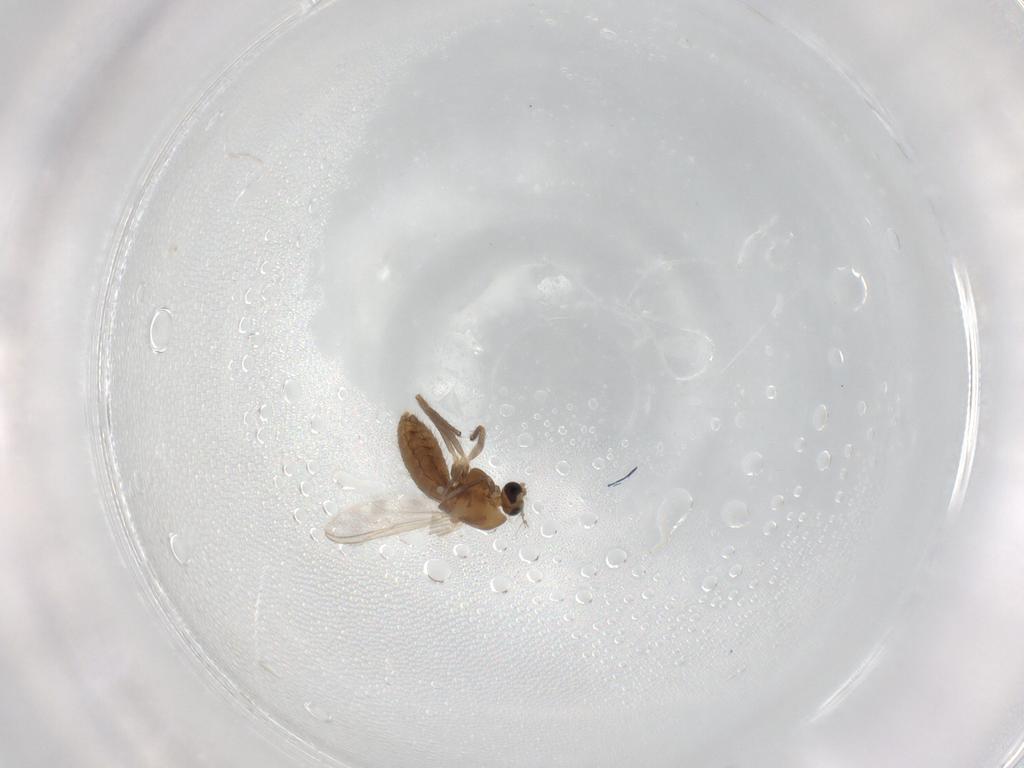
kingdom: Animalia
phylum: Arthropoda
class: Insecta
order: Diptera
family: Chironomidae
